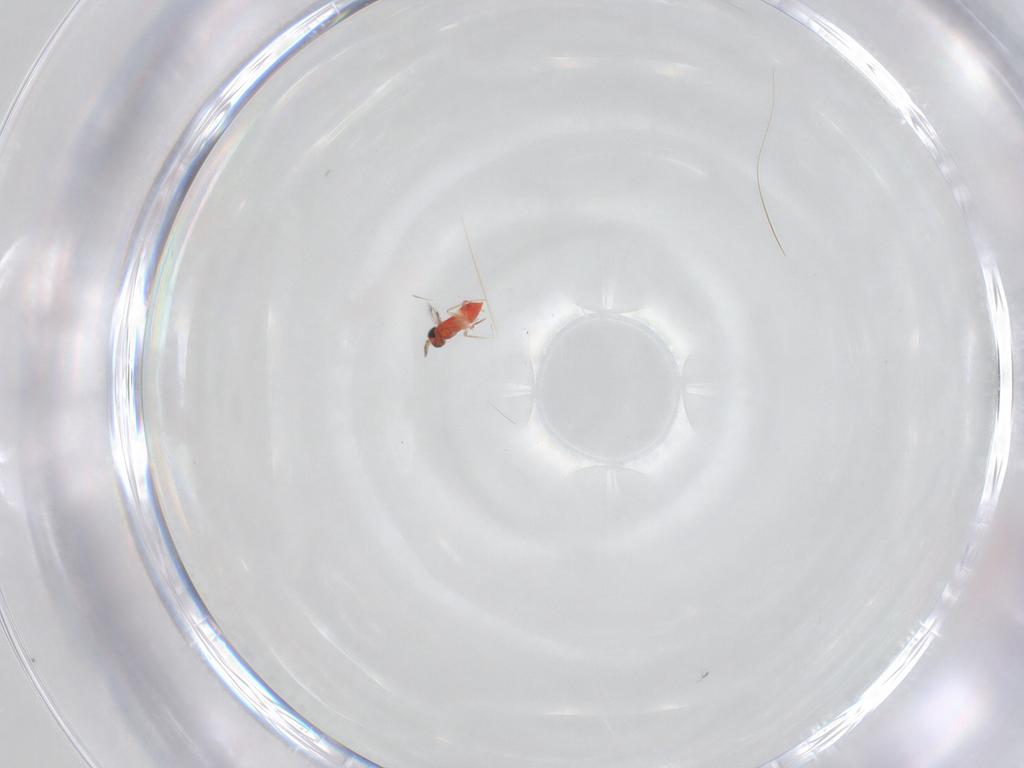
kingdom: Animalia
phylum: Arthropoda
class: Insecta
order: Hymenoptera
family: Trichogrammatidae
